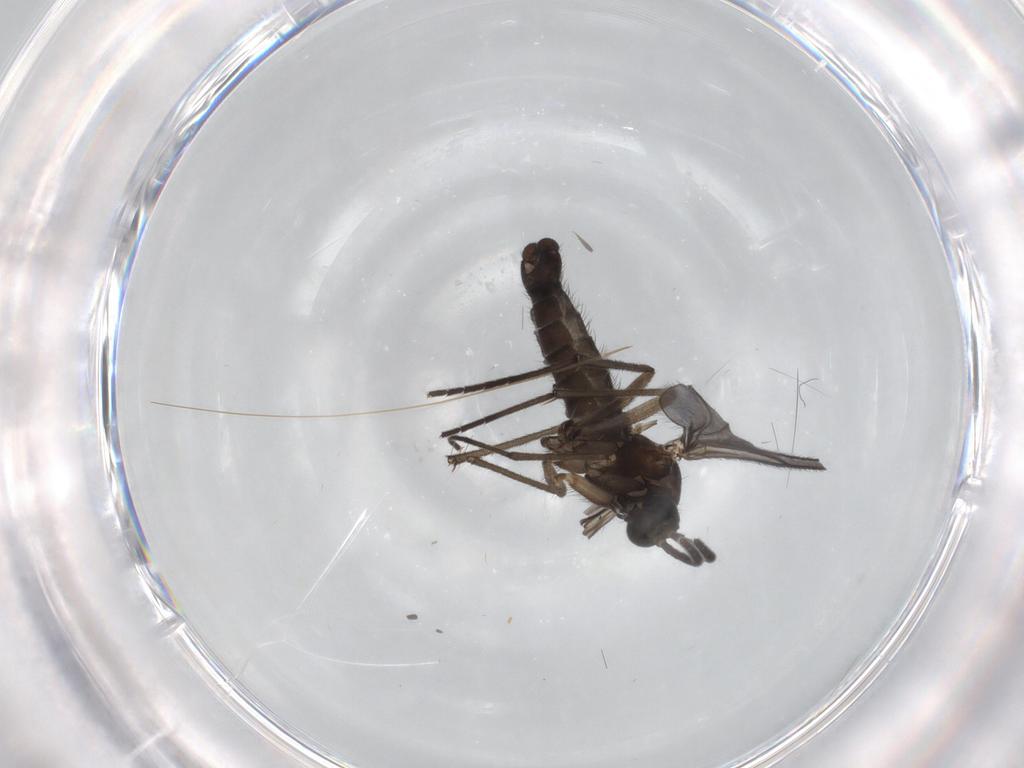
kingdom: Animalia
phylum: Arthropoda
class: Insecta
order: Diptera
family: Sciaridae
